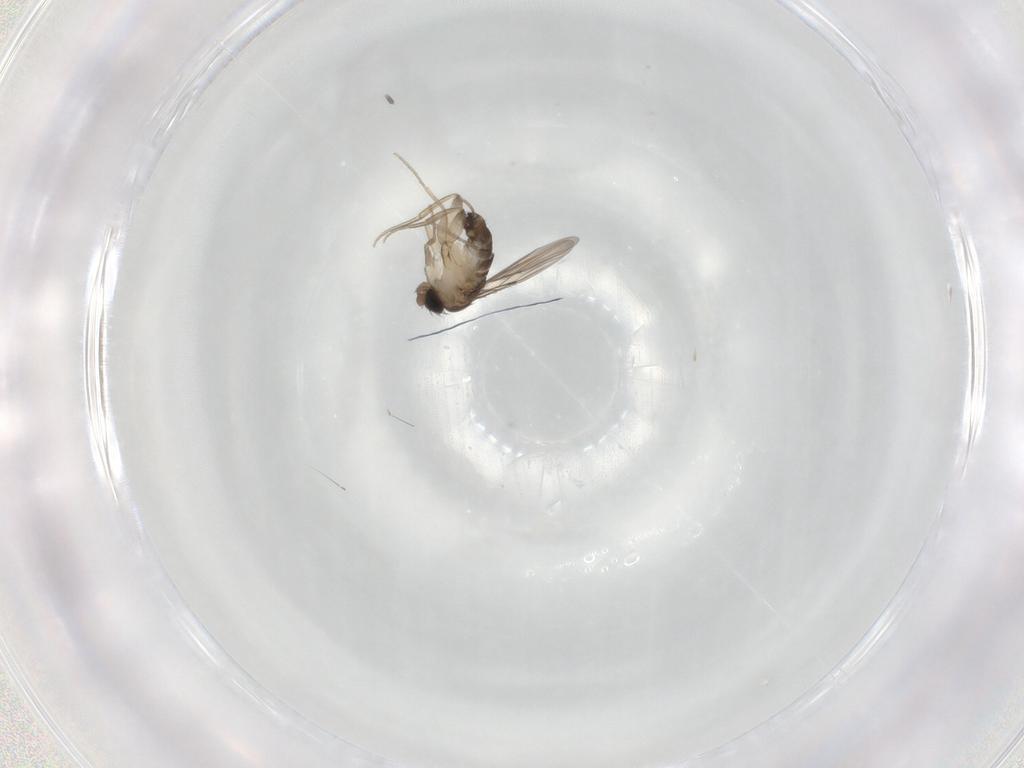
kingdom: Animalia
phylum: Arthropoda
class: Insecta
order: Diptera
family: Phoridae
